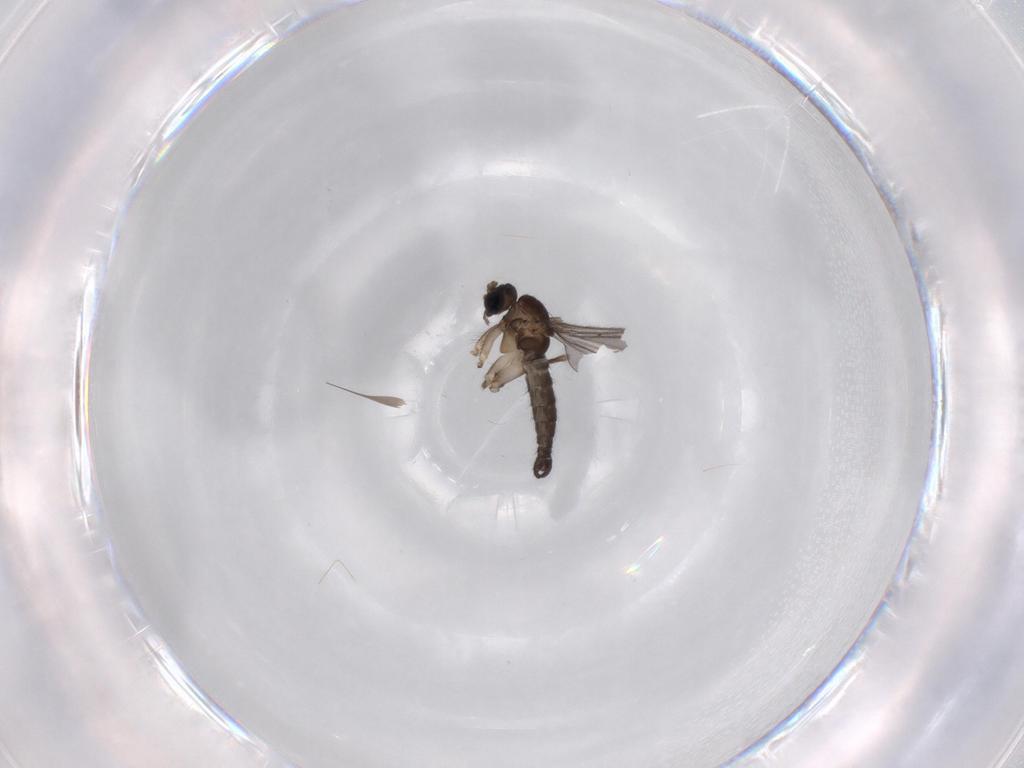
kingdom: Animalia
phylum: Arthropoda
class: Insecta
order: Diptera
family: Sciaridae
